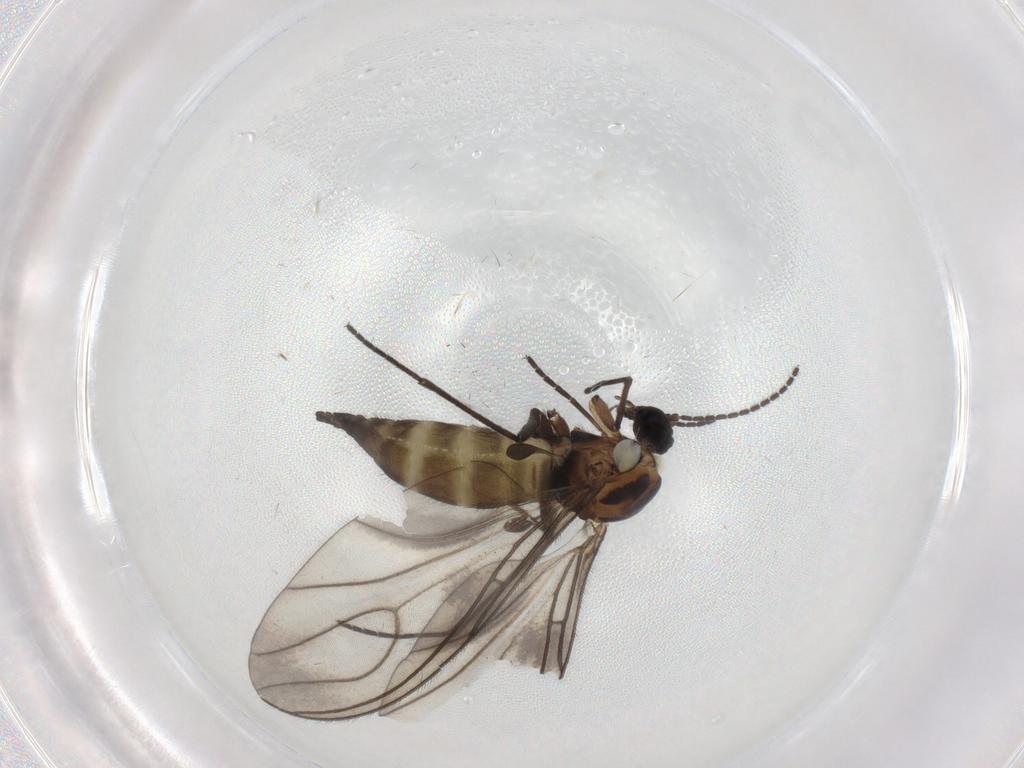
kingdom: Animalia
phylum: Arthropoda
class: Insecta
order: Diptera
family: Sciaridae
